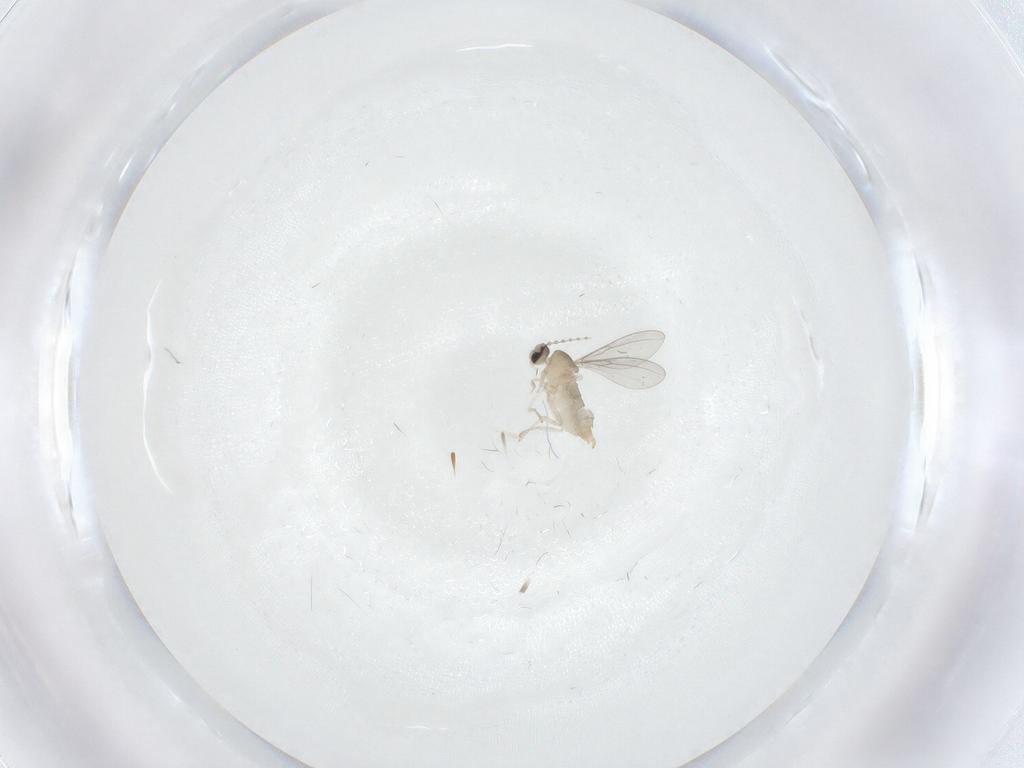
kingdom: Animalia
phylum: Arthropoda
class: Insecta
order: Diptera
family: Cecidomyiidae
